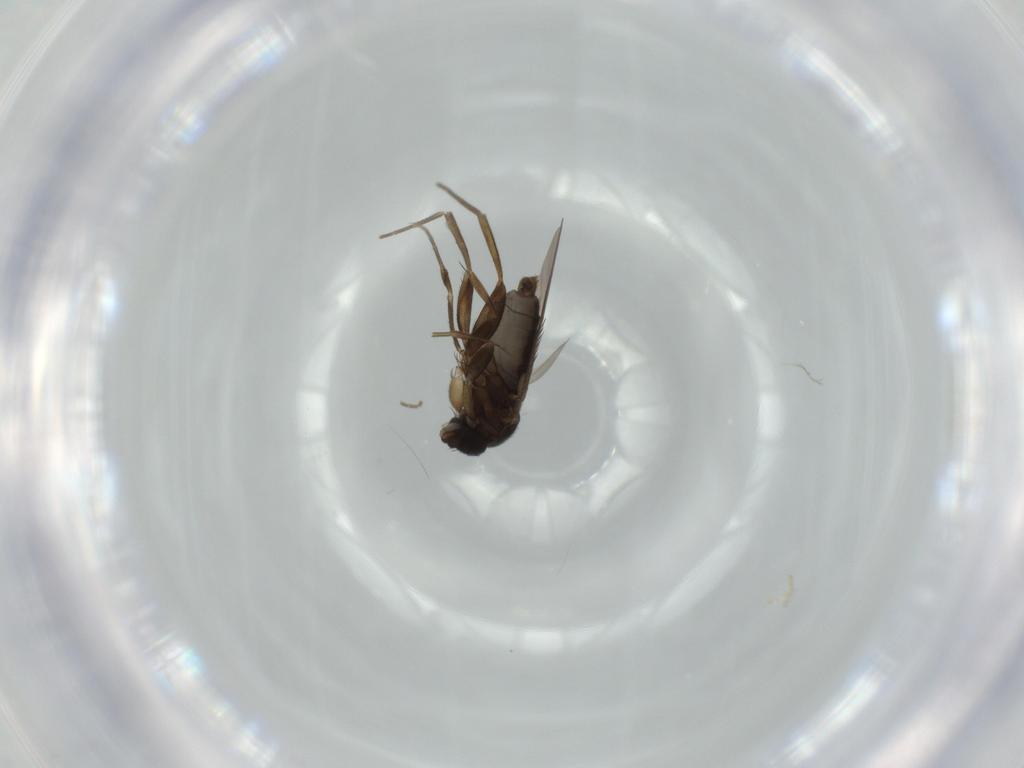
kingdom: Animalia
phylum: Arthropoda
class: Insecta
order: Diptera
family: Phoridae
